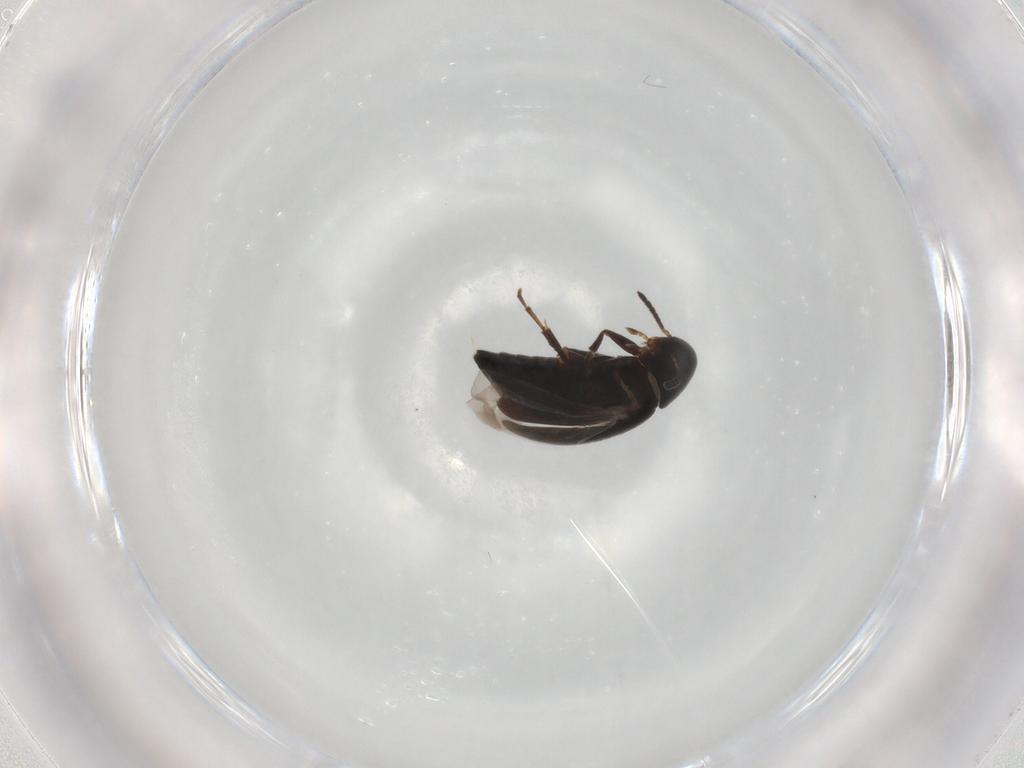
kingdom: Animalia
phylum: Arthropoda
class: Insecta
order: Coleoptera
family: Scraptiidae
